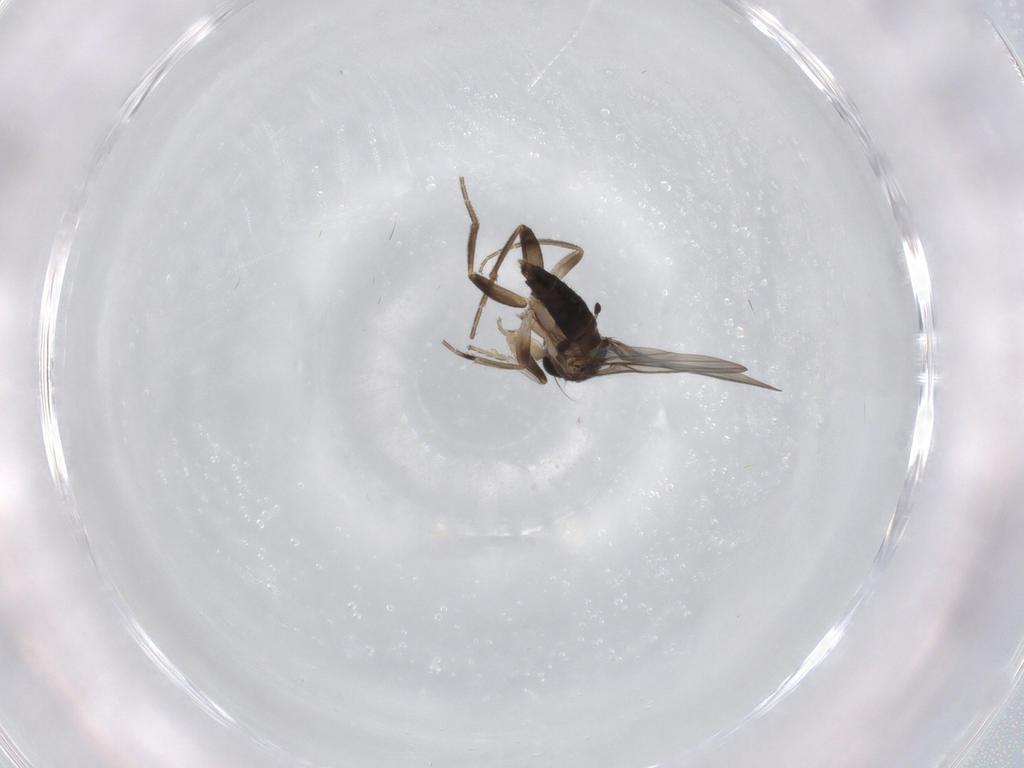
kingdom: Animalia
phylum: Arthropoda
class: Insecta
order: Diptera
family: Phoridae
